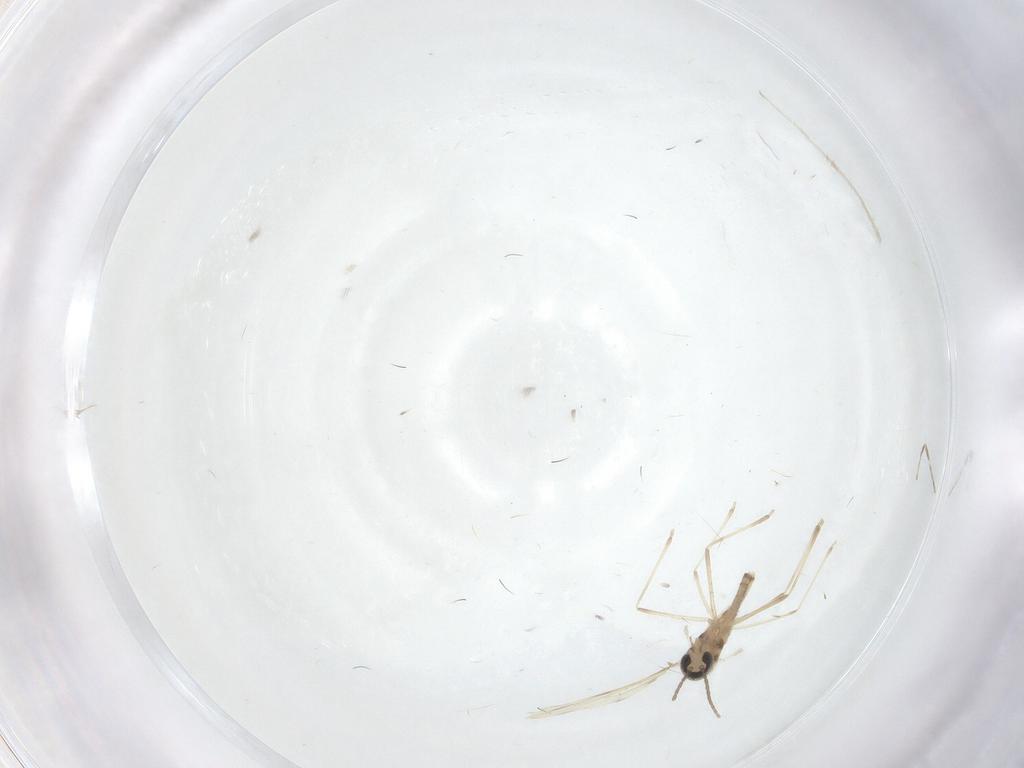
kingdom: Animalia
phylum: Arthropoda
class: Insecta
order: Diptera
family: Cecidomyiidae
